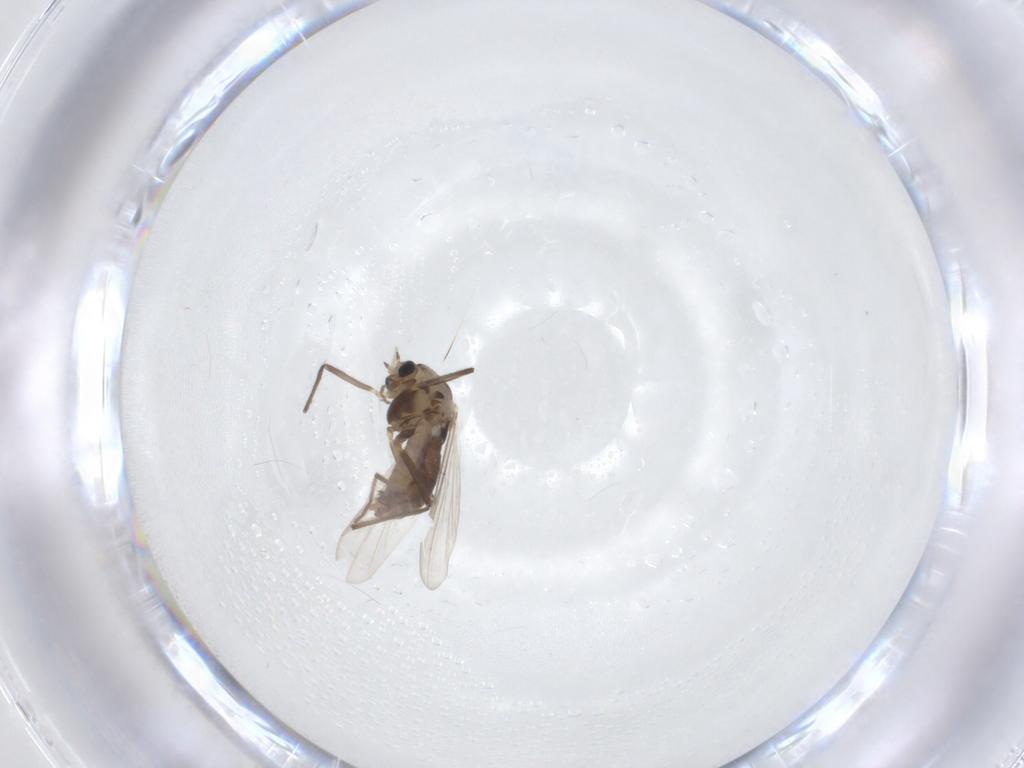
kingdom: Animalia
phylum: Arthropoda
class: Insecta
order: Diptera
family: Chironomidae
